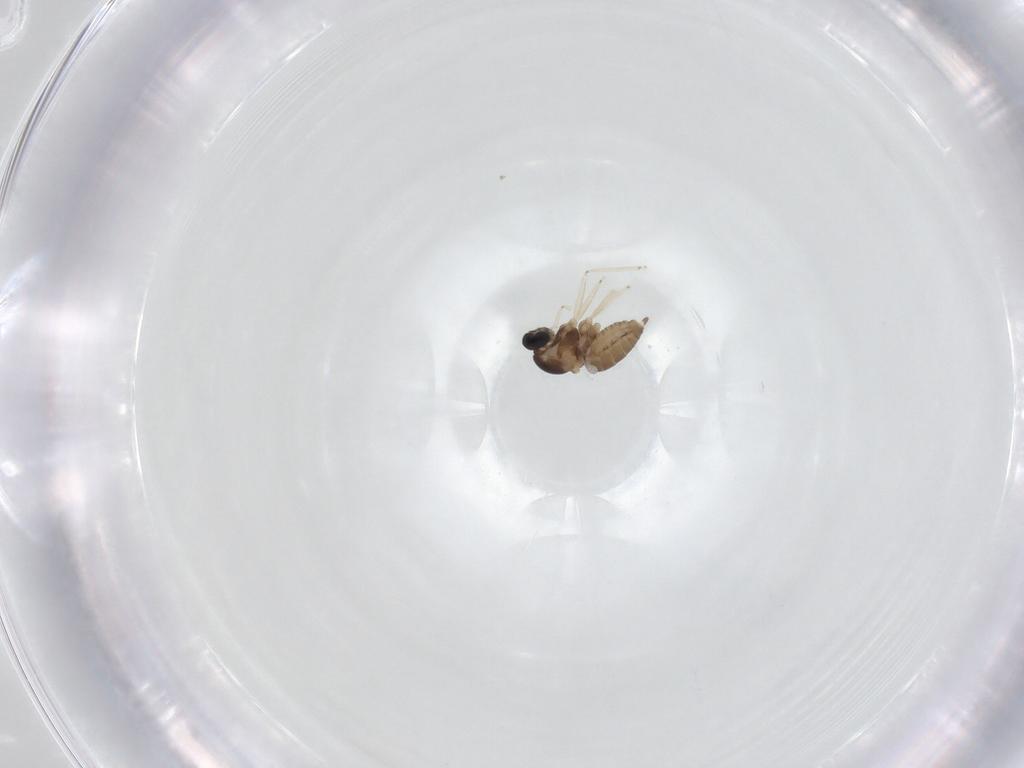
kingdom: Animalia
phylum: Arthropoda
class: Insecta
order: Diptera
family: Cecidomyiidae
